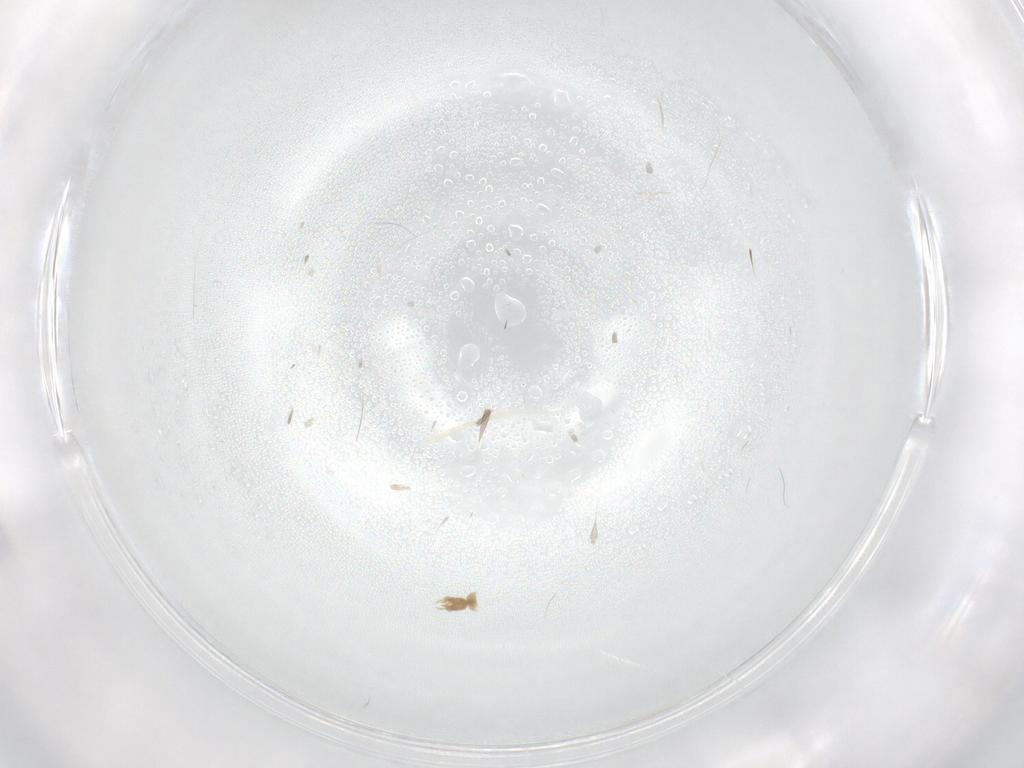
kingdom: Animalia
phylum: Arthropoda
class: Insecta
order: Diptera
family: Chironomidae
